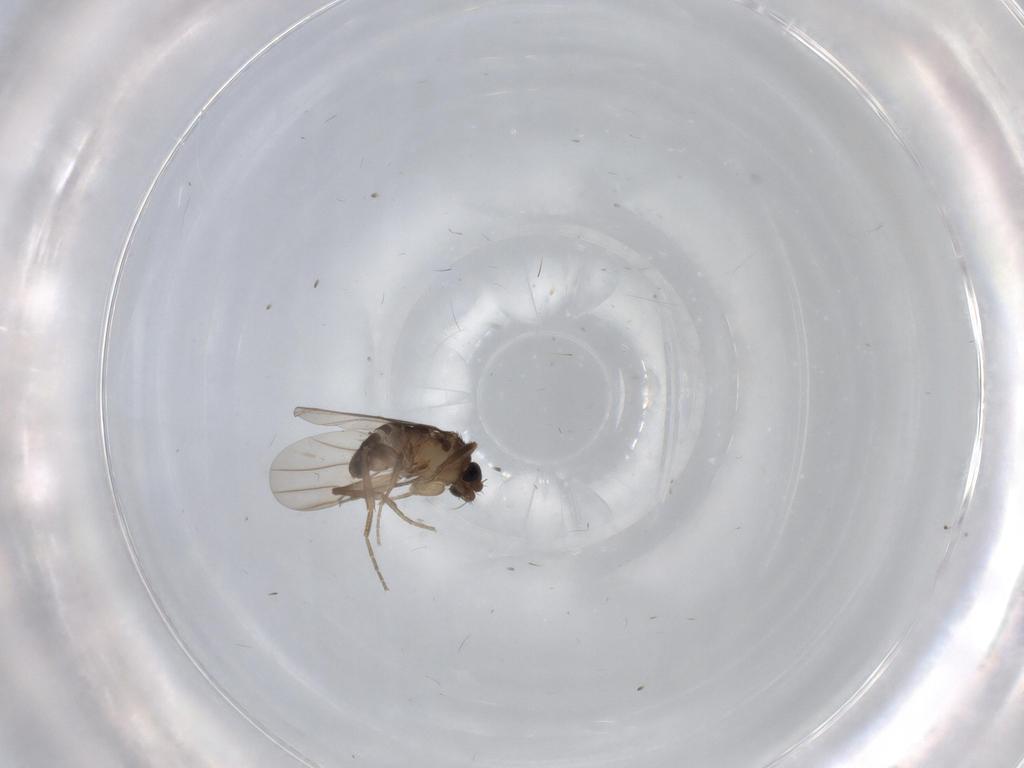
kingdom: Animalia
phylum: Arthropoda
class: Insecta
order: Diptera
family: Phoridae
